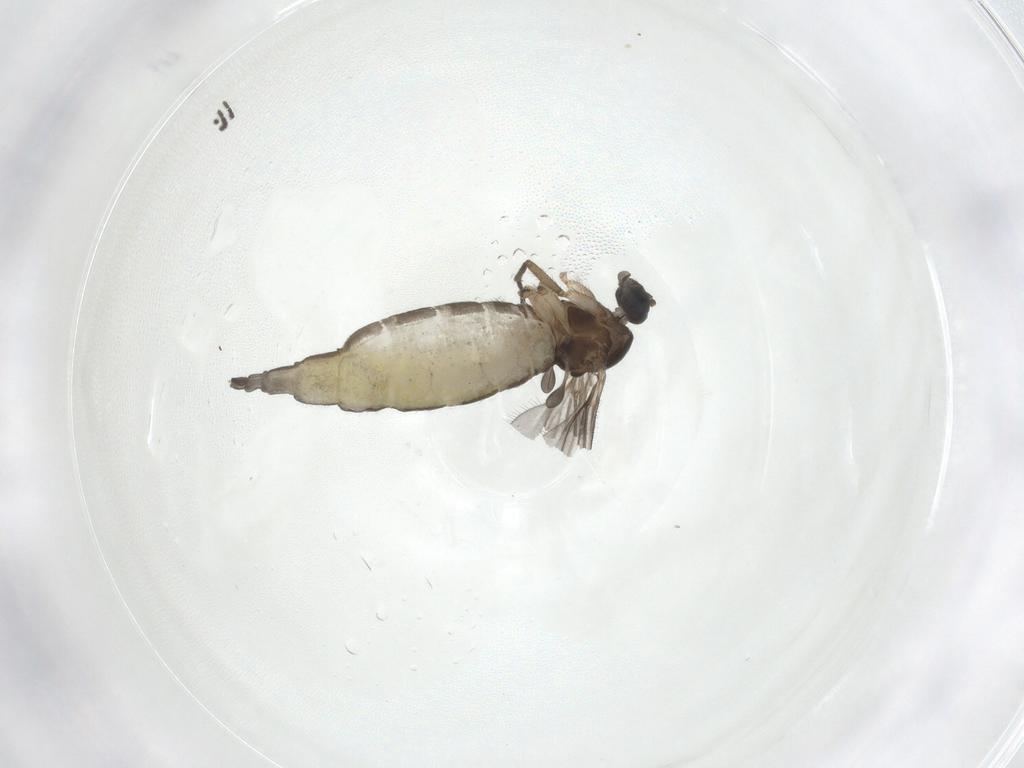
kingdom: Animalia
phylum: Arthropoda
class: Insecta
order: Diptera
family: Sciaridae
